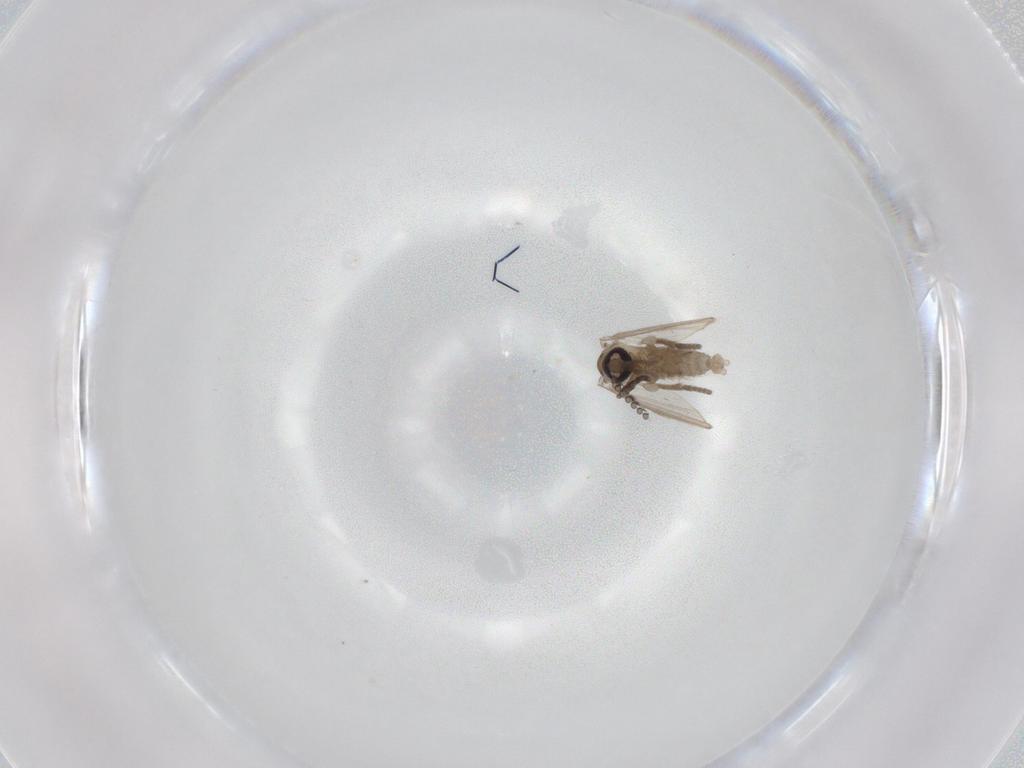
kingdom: Animalia
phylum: Arthropoda
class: Insecta
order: Diptera
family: Psychodidae
